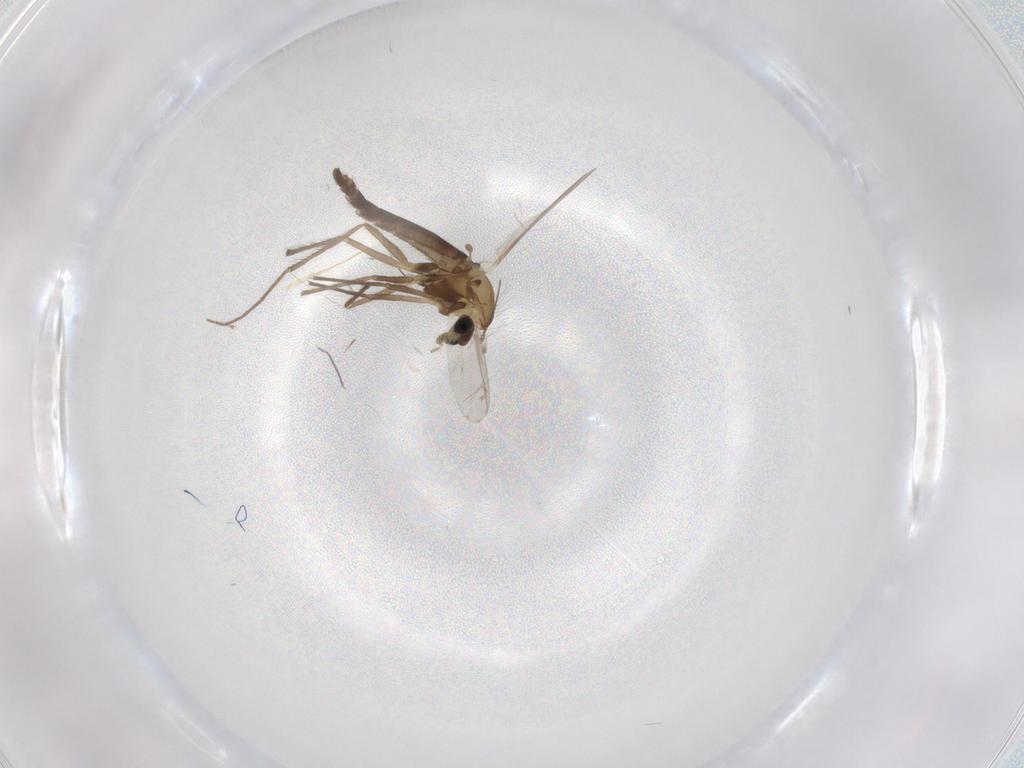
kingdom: Animalia
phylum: Arthropoda
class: Insecta
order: Diptera
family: Chironomidae
